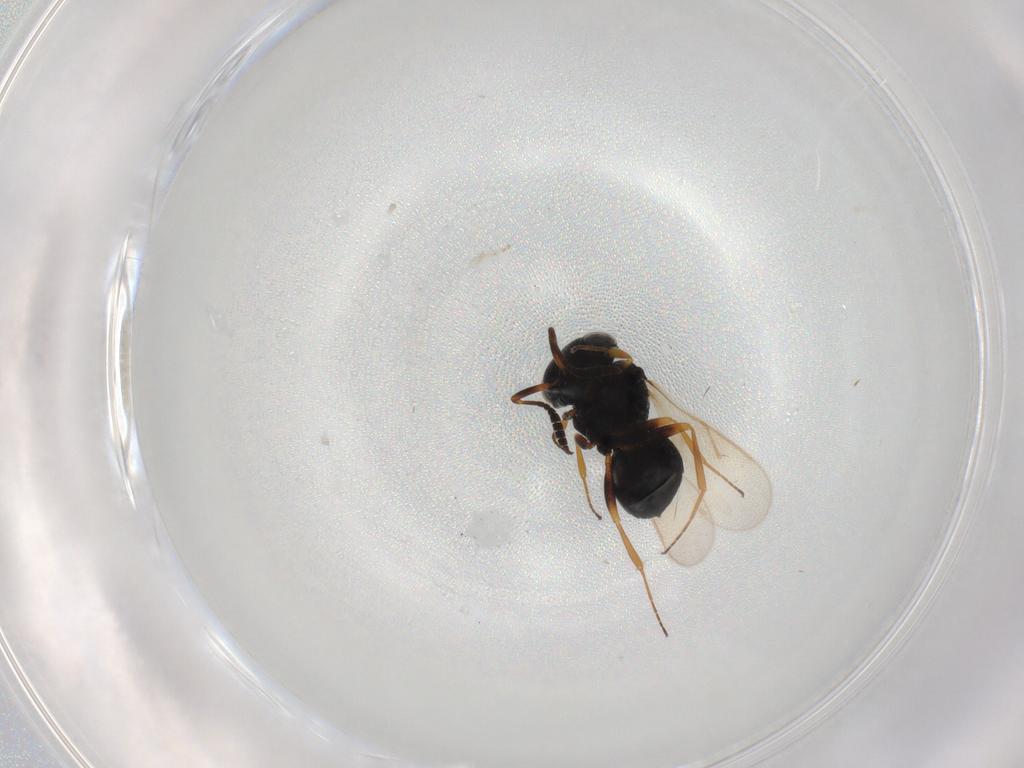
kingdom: Animalia
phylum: Arthropoda
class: Insecta
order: Hymenoptera
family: Scelionidae
